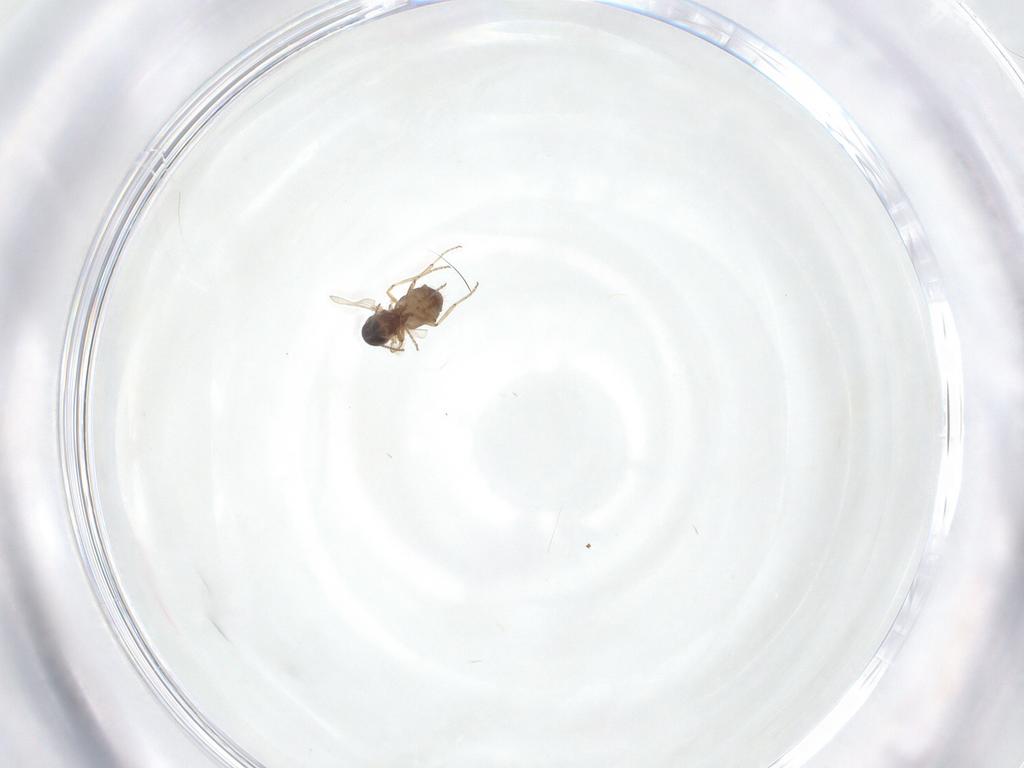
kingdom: Animalia
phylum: Arthropoda
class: Insecta
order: Diptera
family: Ceratopogonidae
